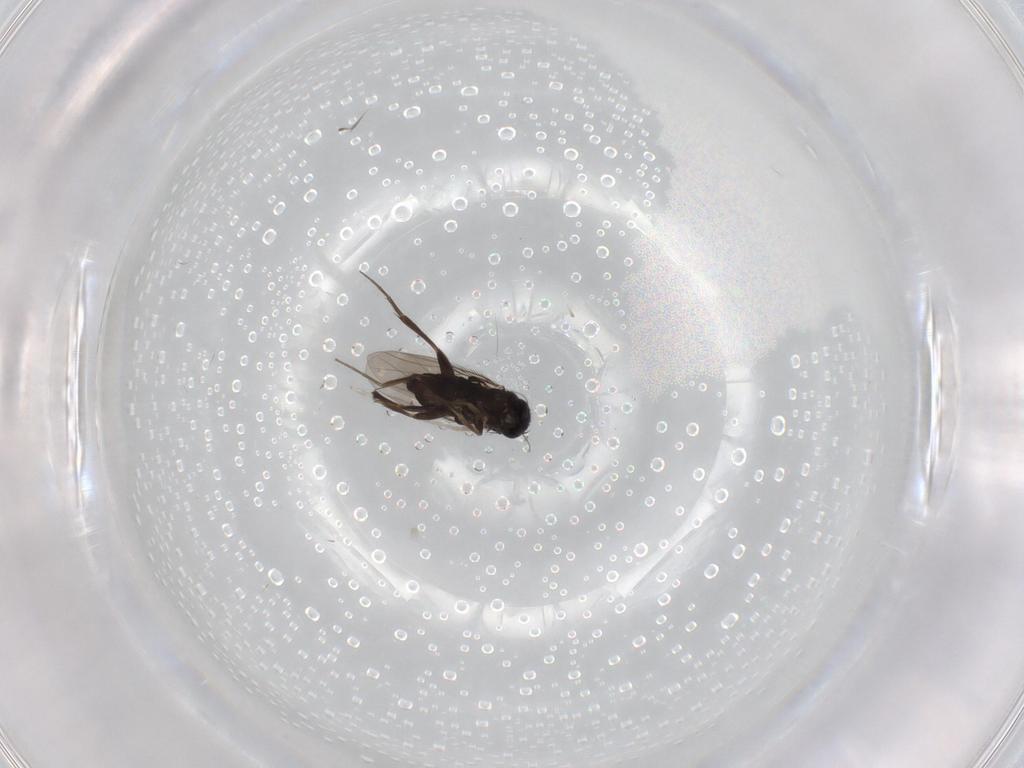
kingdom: Animalia
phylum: Arthropoda
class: Insecta
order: Diptera
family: Phoridae
